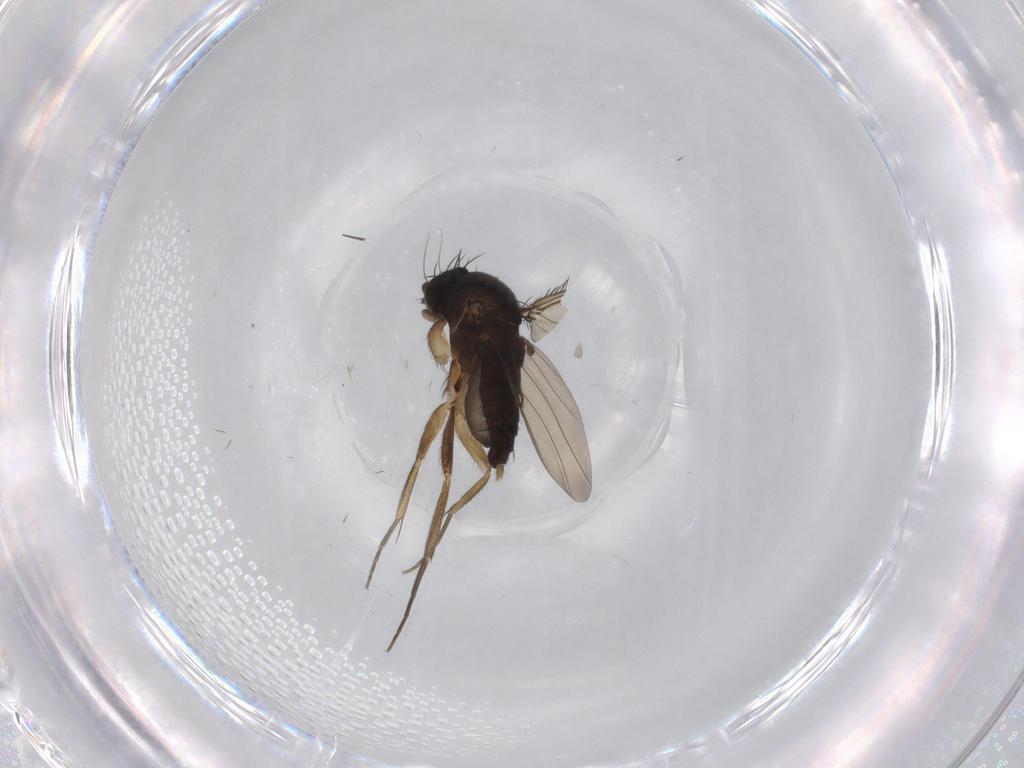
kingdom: Animalia
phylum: Arthropoda
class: Insecta
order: Diptera
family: Phoridae
